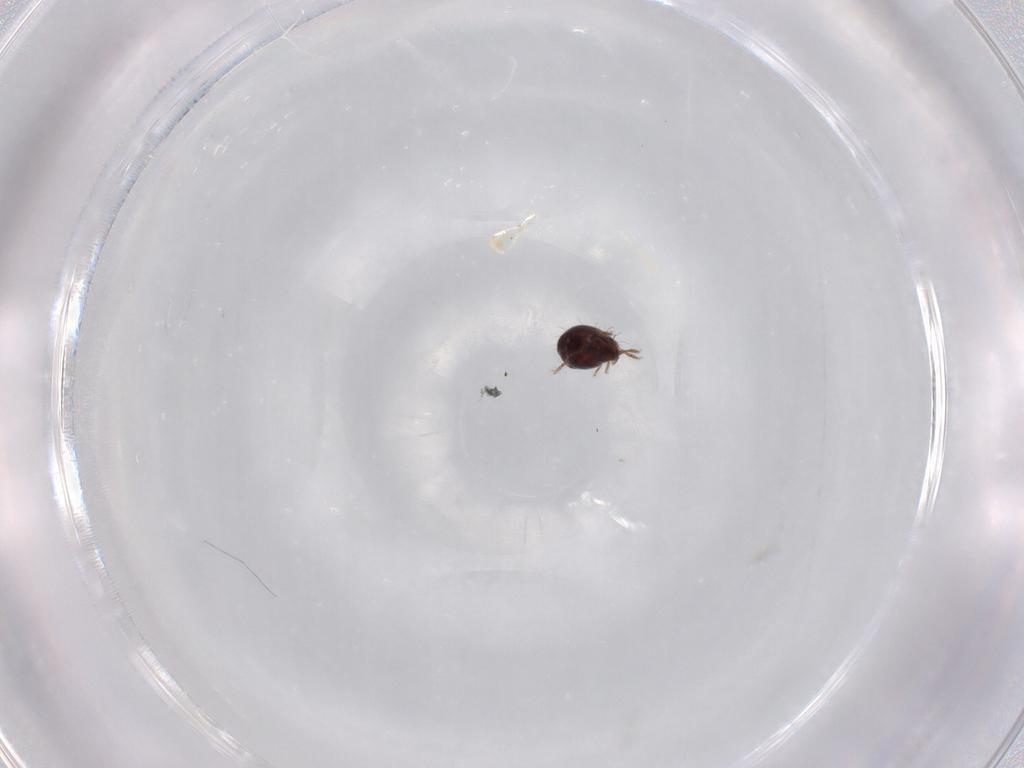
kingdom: Animalia
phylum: Arthropoda
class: Arachnida
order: Sarcoptiformes
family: Humerobatidae
